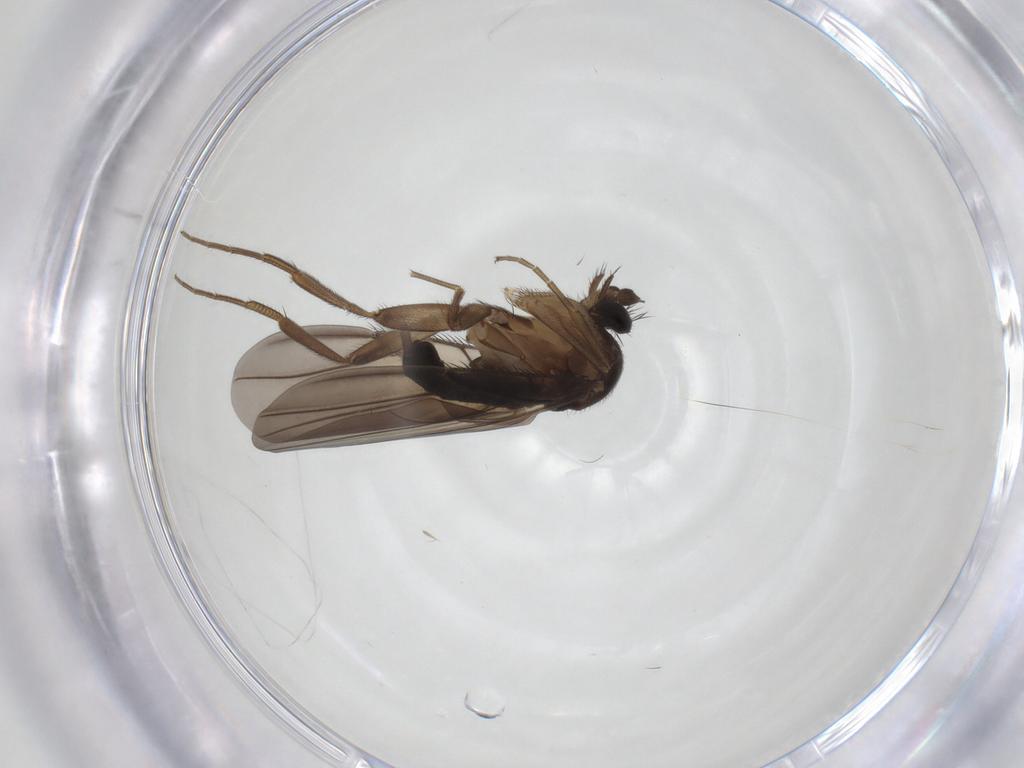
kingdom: Animalia
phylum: Arthropoda
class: Insecta
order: Diptera
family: Phoridae
